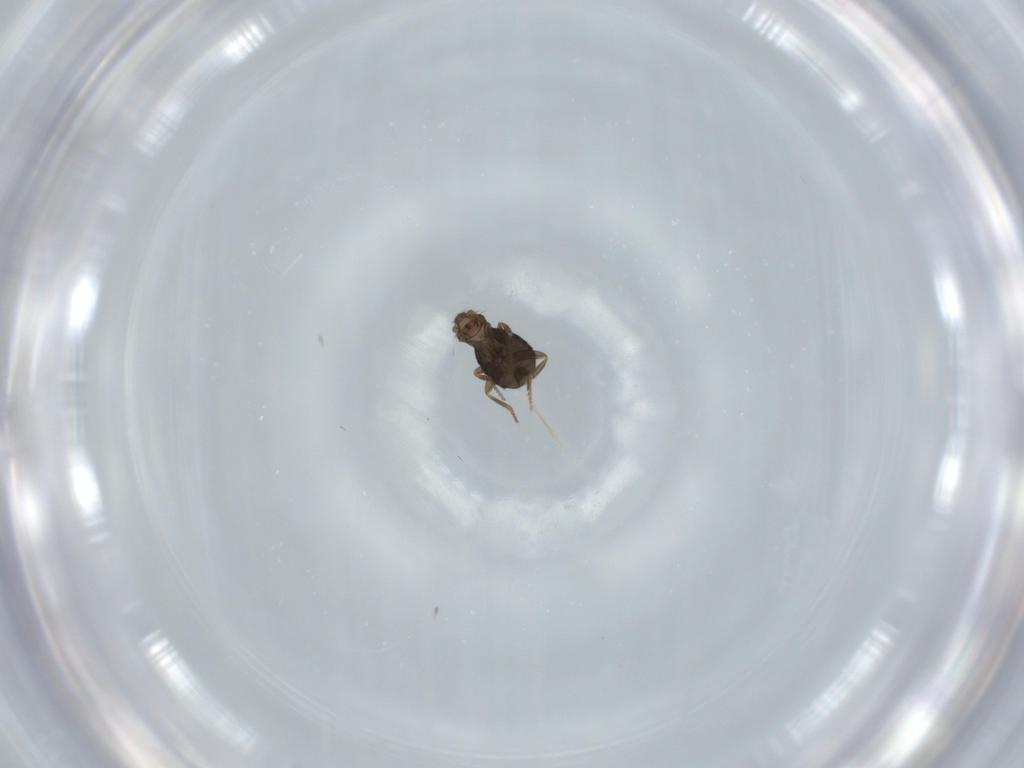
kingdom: Animalia
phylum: Arthropoda
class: Insecta
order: Diptera
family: Phoridae
